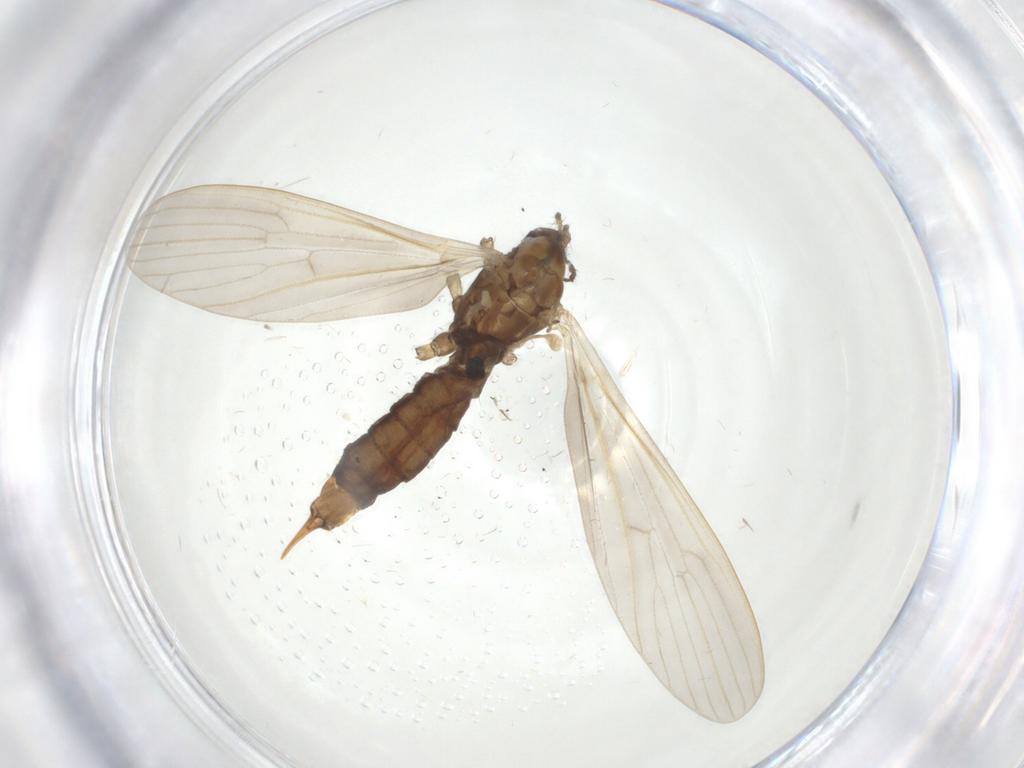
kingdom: Animalia
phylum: Arthropoda
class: Insecta
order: Diptera
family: Limoniidae
